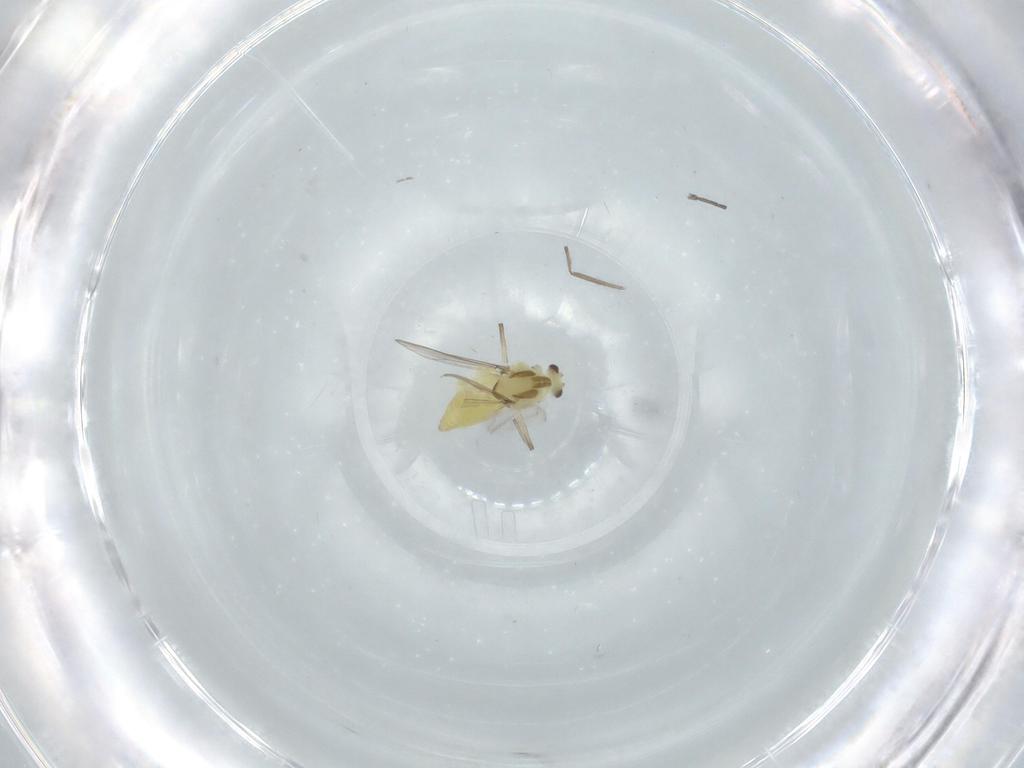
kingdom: Animalia
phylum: Arthropoda
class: Insecta
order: Diptera
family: Chironomidae
